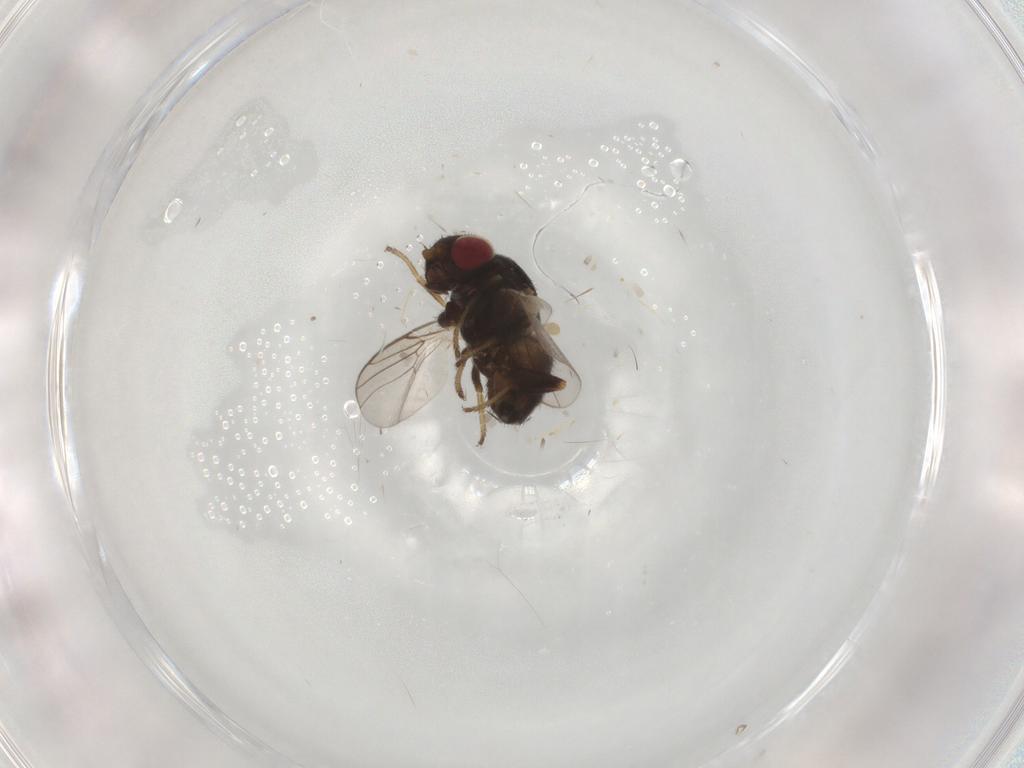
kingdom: Animalia
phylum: Arthropoda
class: Insecta
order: Diptera
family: Chloropidae
